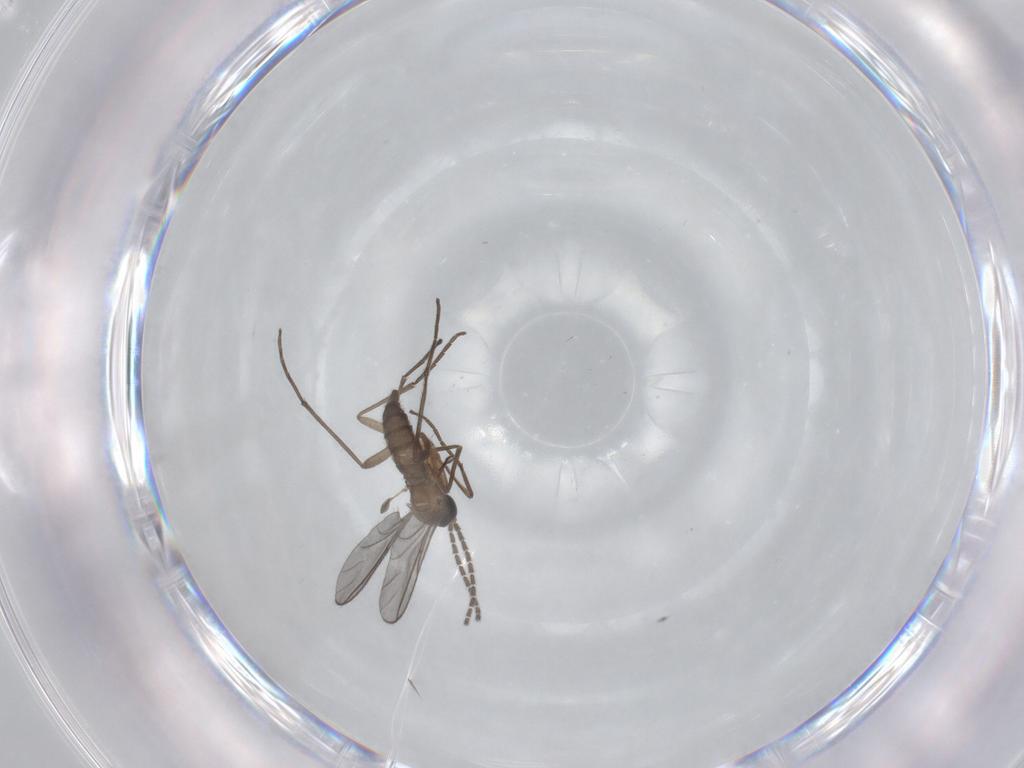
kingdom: Animalia
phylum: Arthropoda
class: Insecta
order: Diptera
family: Sciaridae
